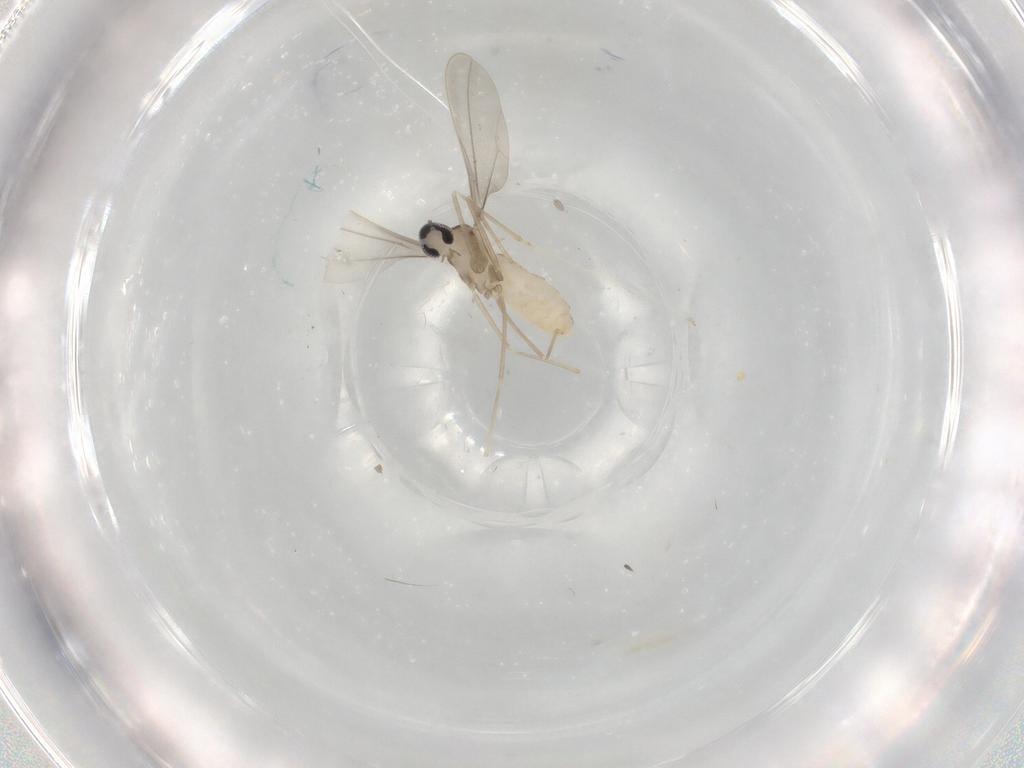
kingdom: Animalia
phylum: Arthropoda
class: Insecta
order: Diptera
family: Cecidomyiidae
